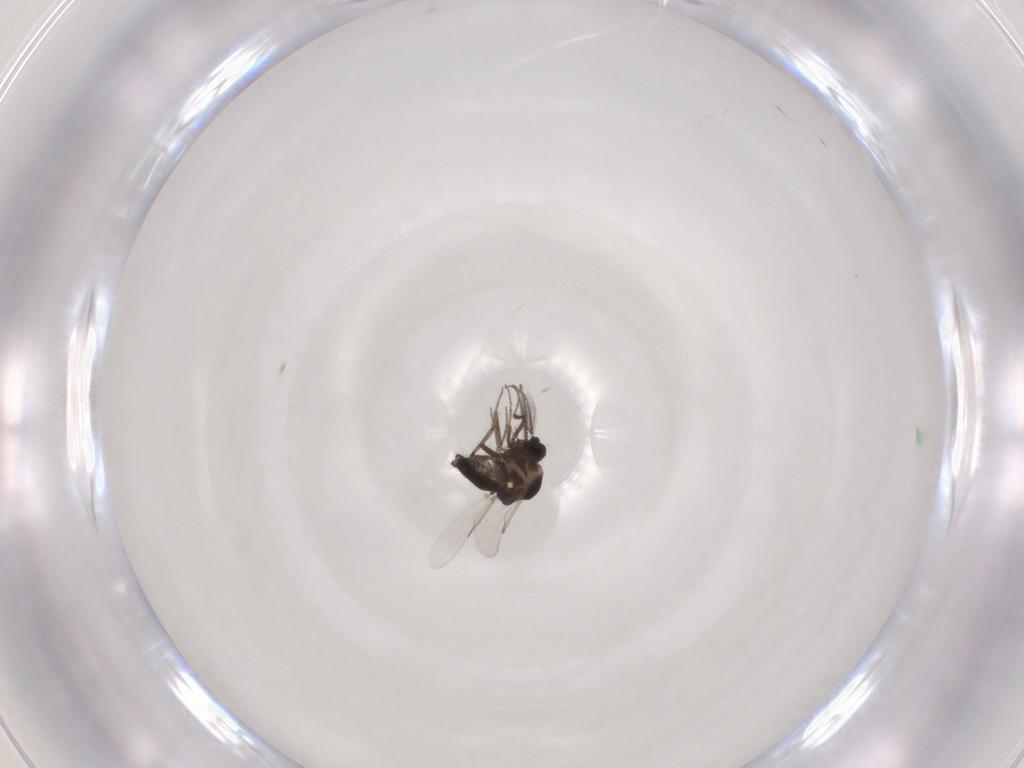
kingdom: Animalia
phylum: Arthropoda
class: Insecta
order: Diptera
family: Ceratopogonidae
